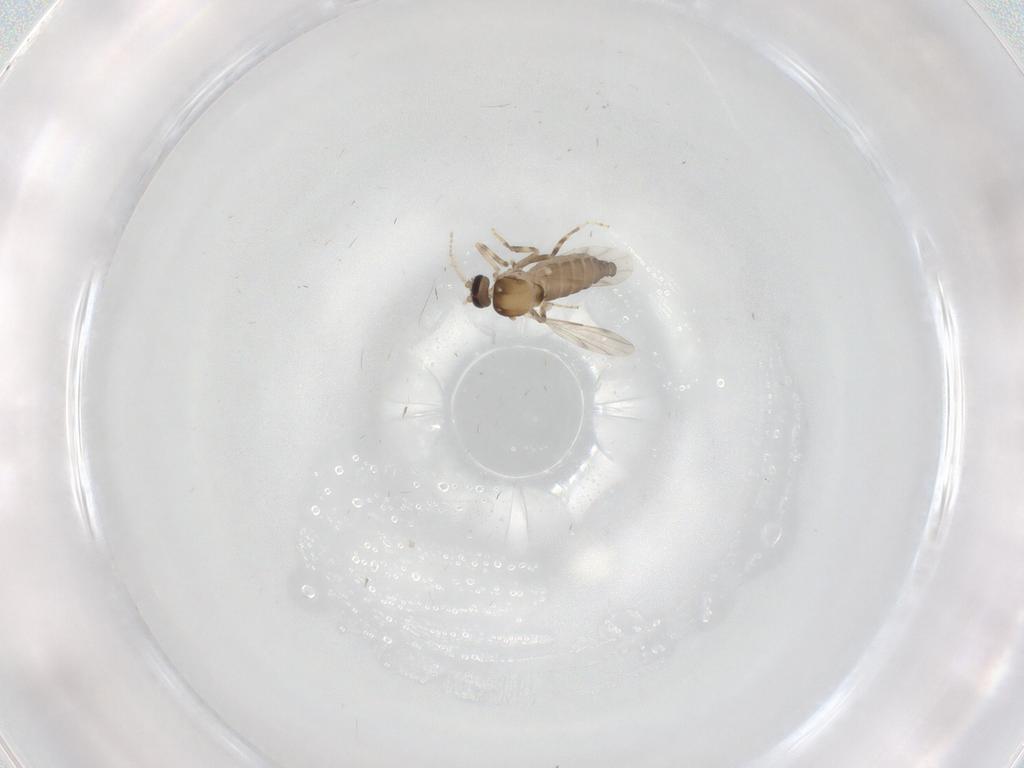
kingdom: Animalia
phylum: Arthropoda
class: Insecta
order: Diptera
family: Ceratopogonidae
